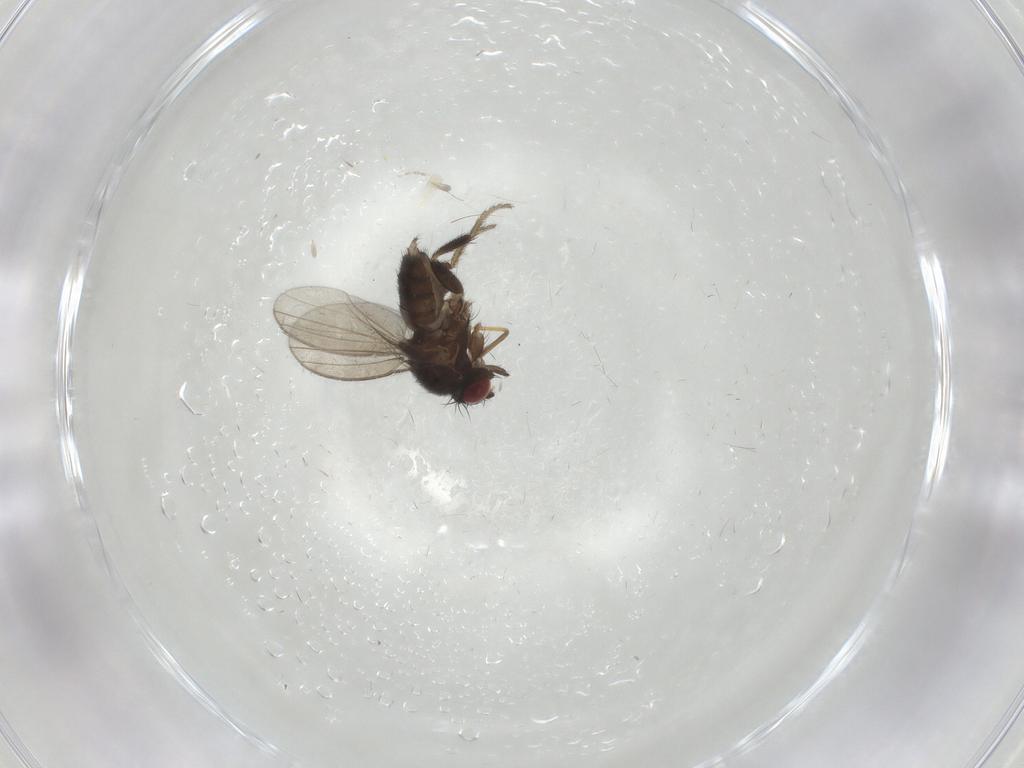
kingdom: Animalia
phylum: Arthropoda
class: Insecta
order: Diptera
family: Milichiidae
